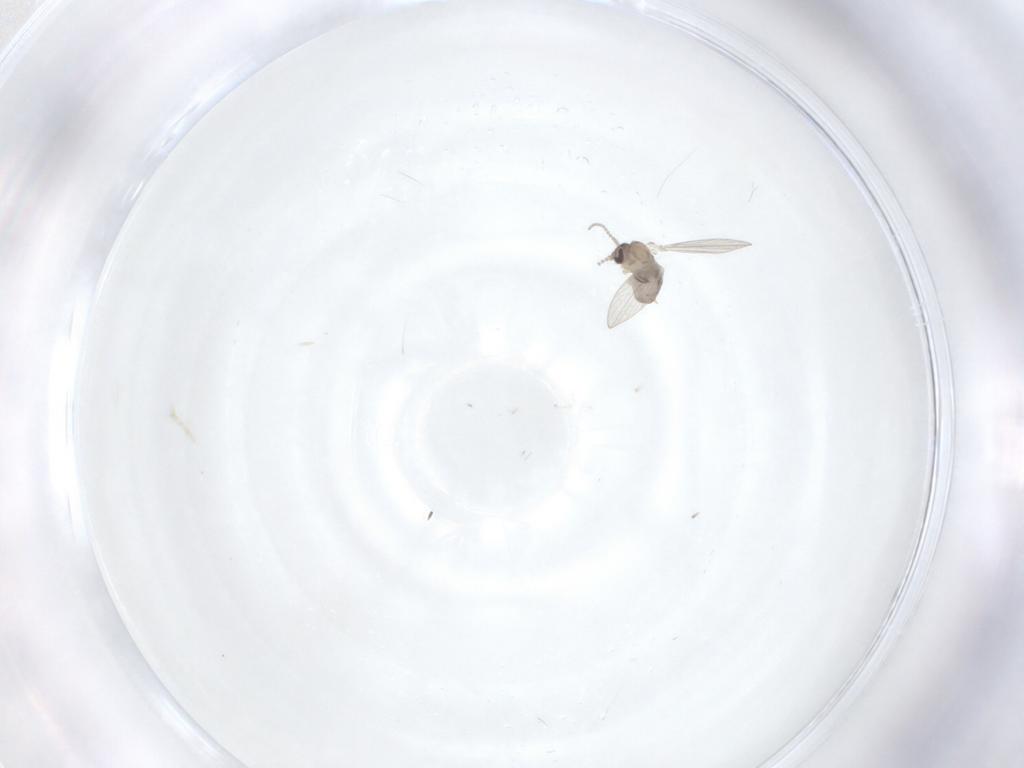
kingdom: Animalia
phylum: Arthropoda
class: Insecta
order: Diptera
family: Psychodidae
